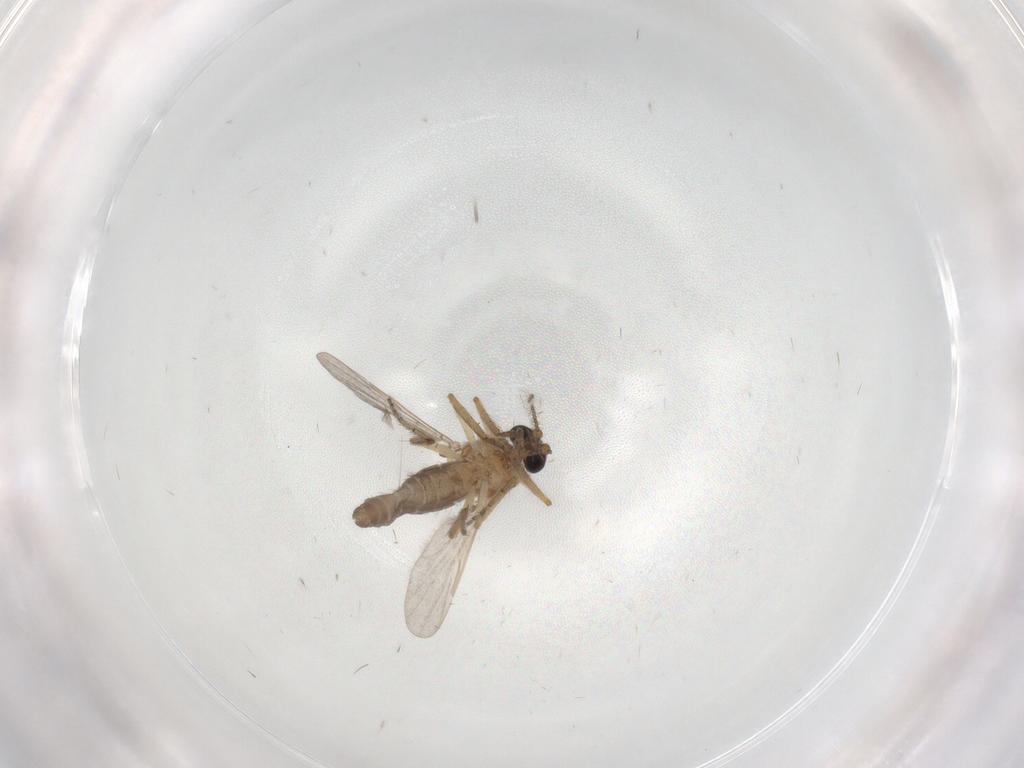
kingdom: Animalia
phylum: Arthropoda
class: Insecta
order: Diptera
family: Ceratopogonidae
